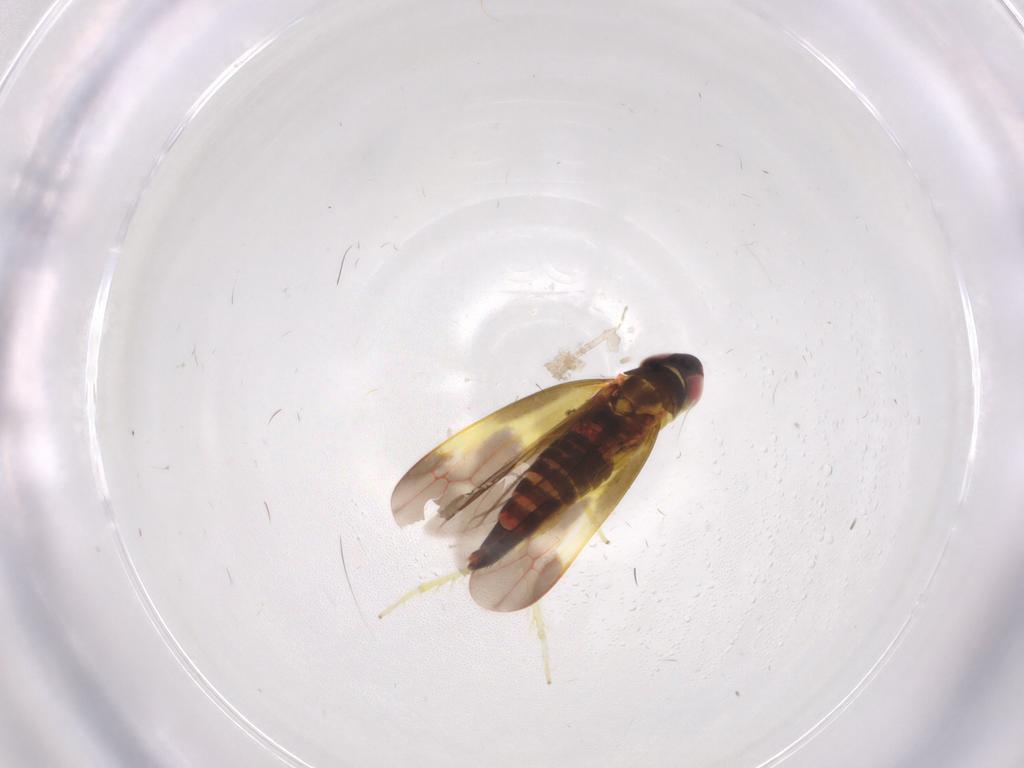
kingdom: Animalia
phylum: Arthropoda
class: Insecta
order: Hemiptera
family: Cicadellidae
